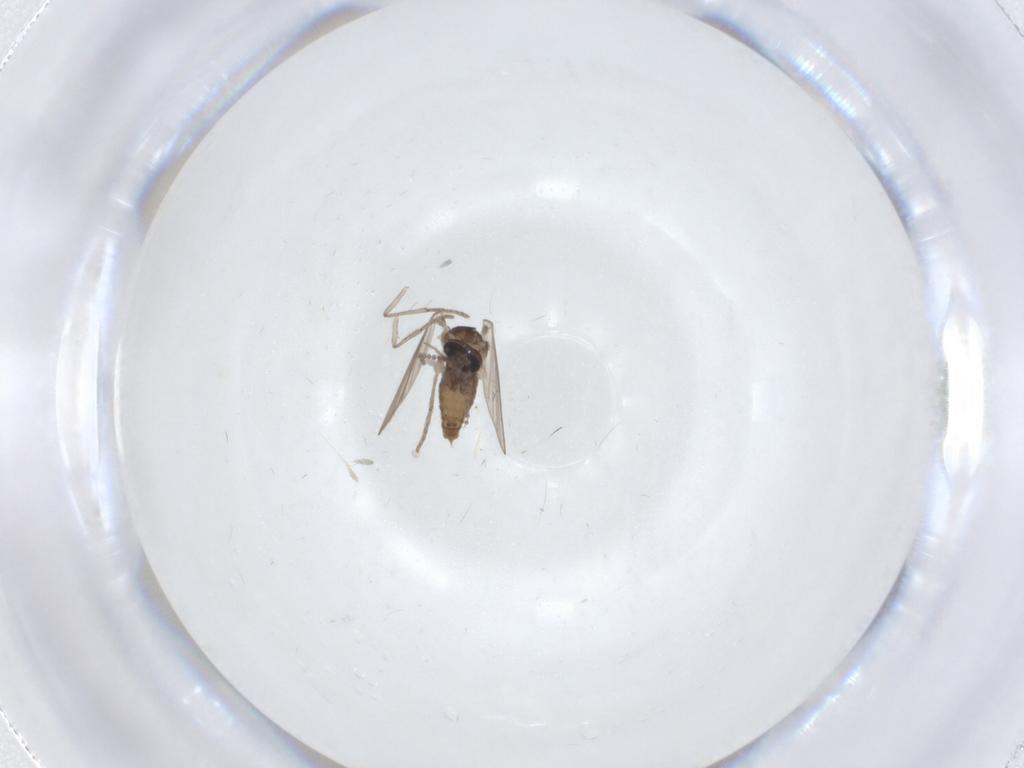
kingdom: Animalia
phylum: Arthropoda
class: Insecta
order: Diptera
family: Psychodidae
